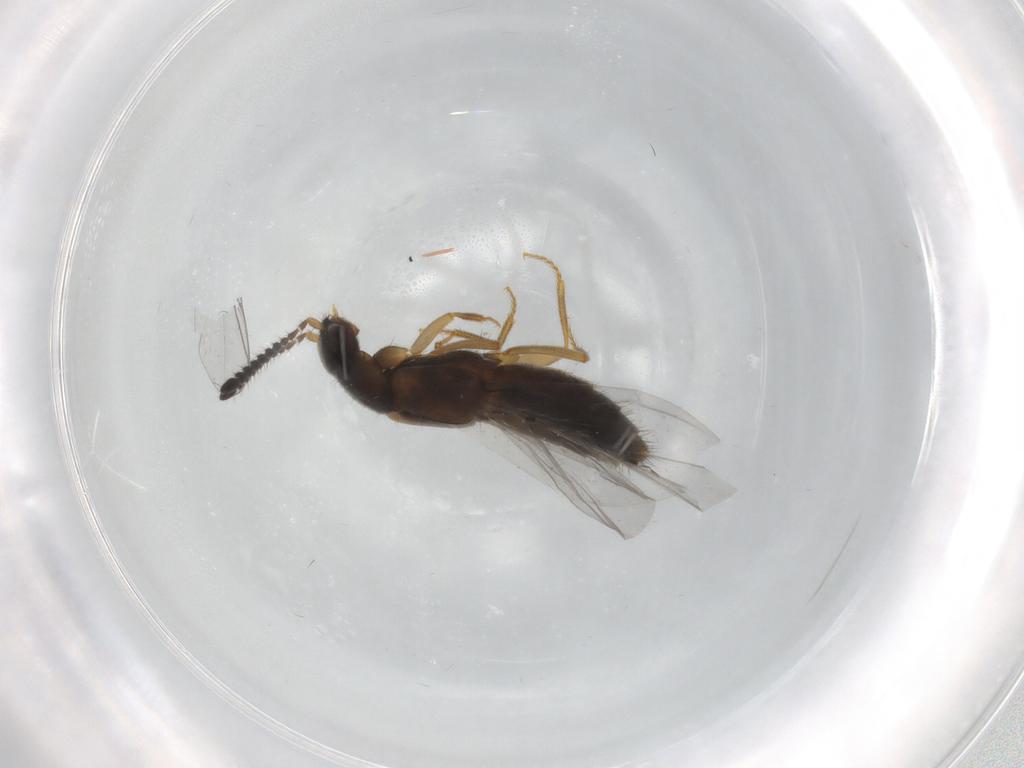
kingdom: Animalia
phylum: Arthropoda
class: Insecta
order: Coleoptera
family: Staphylinidae
